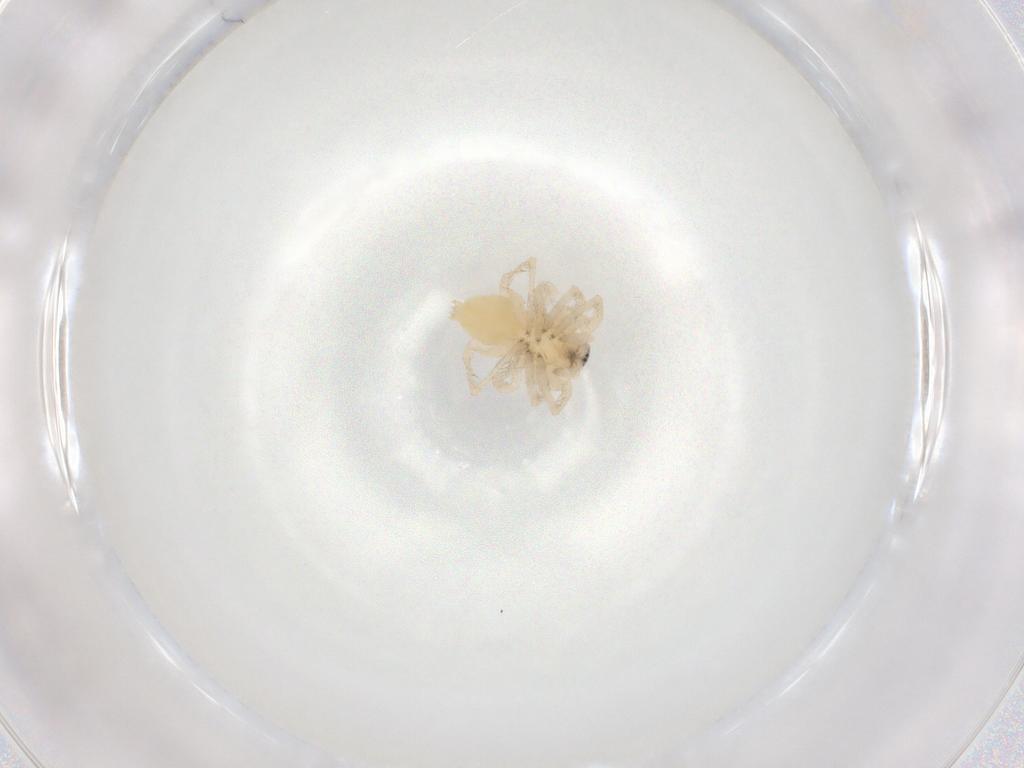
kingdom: Animalia
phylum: Arthropoda
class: Arachnida
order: Araneae
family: Anyphaenidae
